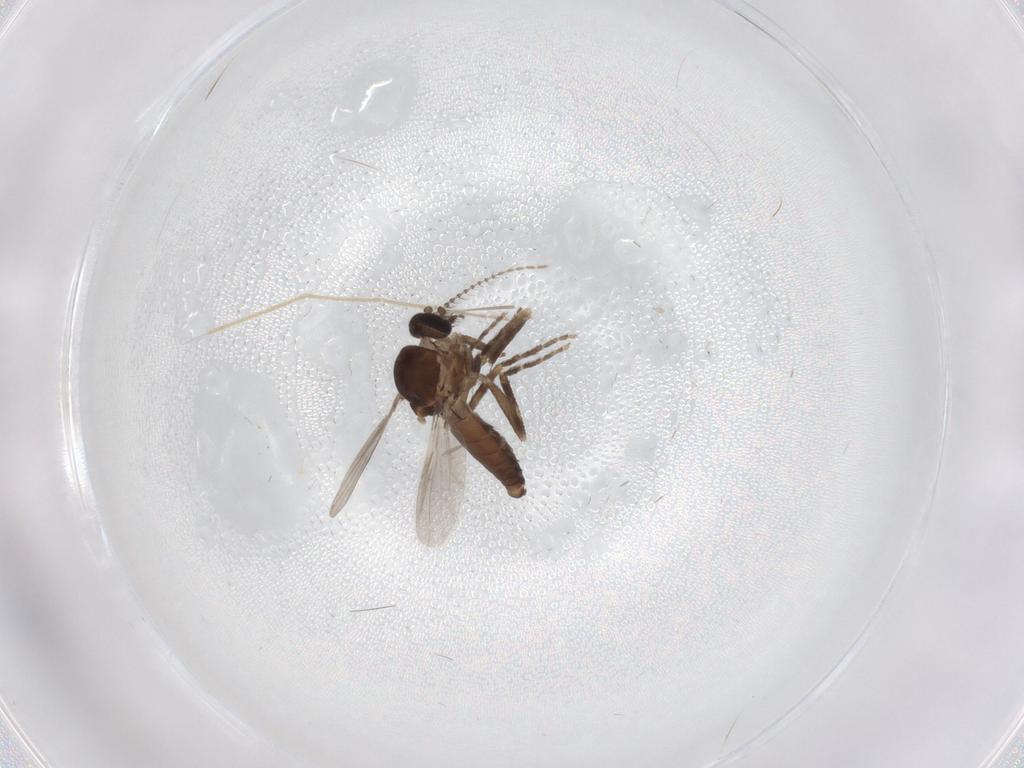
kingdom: Animalia
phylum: Arthropoda
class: Insecta
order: Diptera
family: Ceratopogonidae
